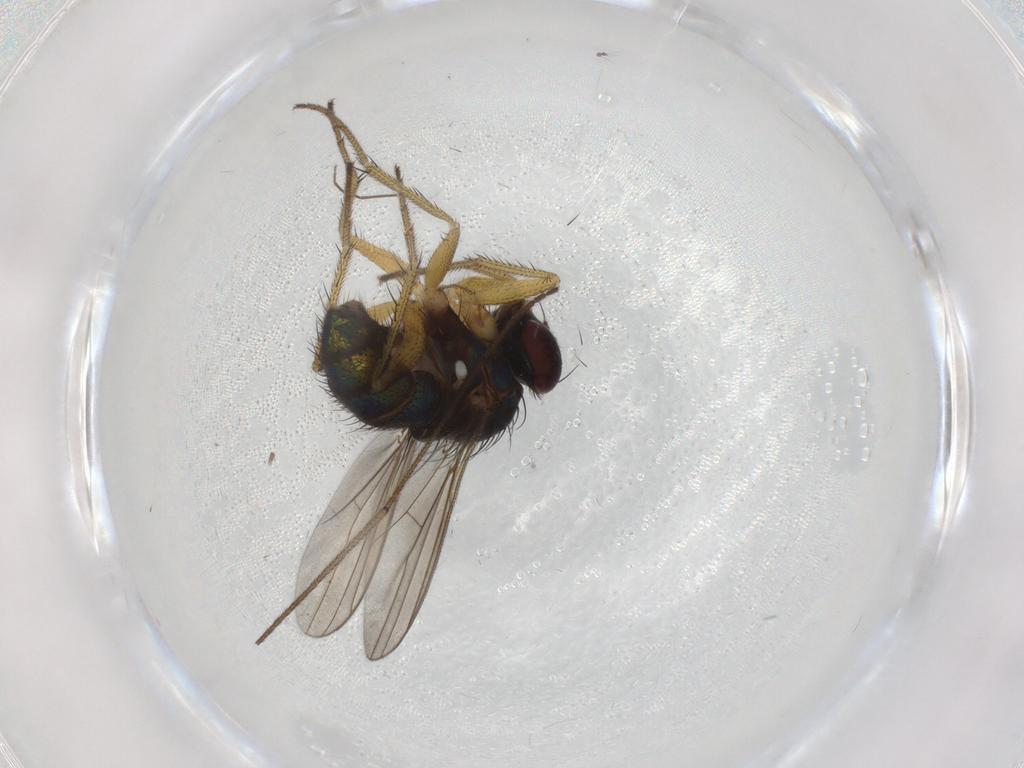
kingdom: Animalia
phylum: Arthropoda
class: Insecta
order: Diptera
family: Dolichopodidae
